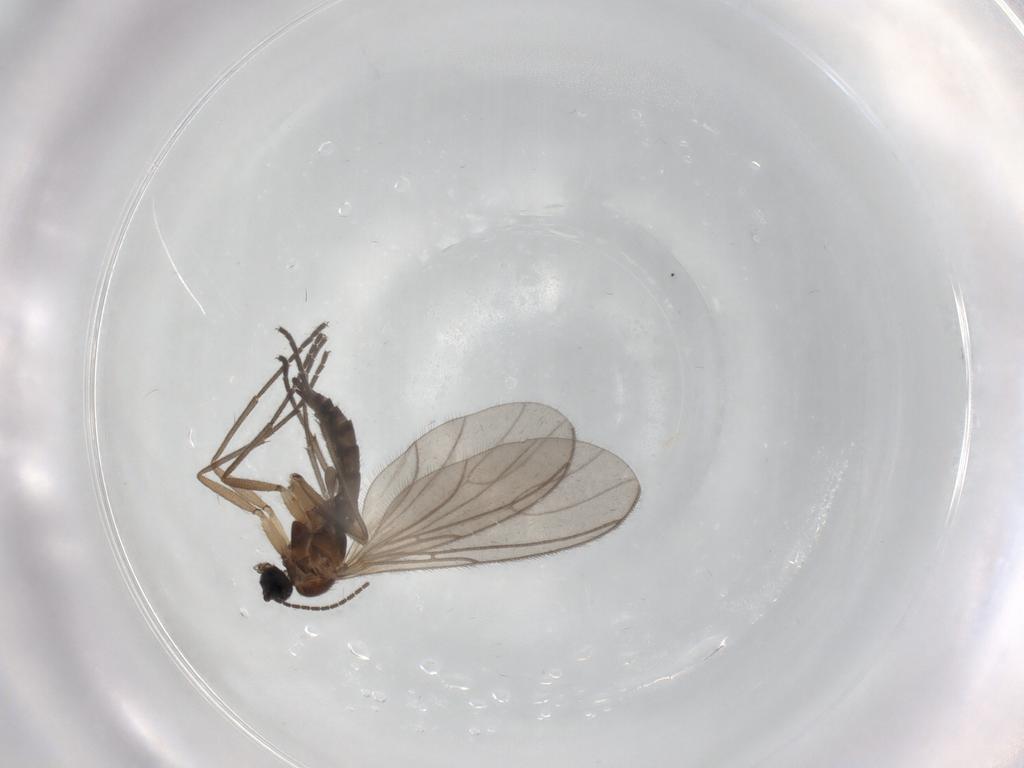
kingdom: Animalia
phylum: Arthropoda
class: Insecta
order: Diptera
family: Sciaridae
